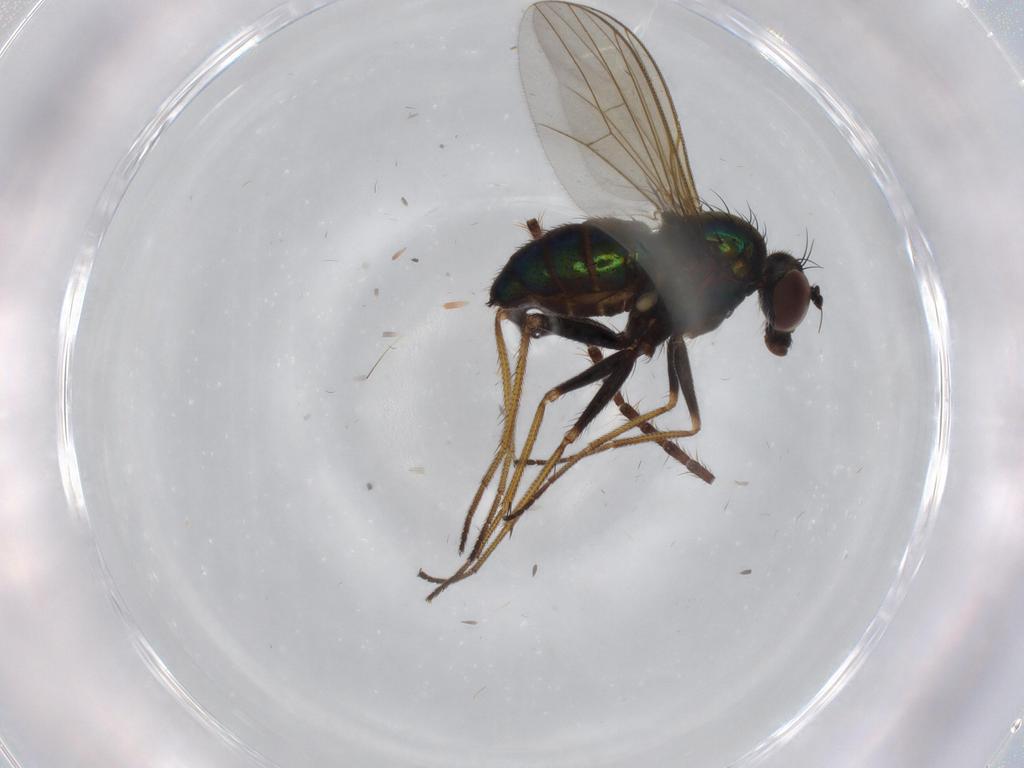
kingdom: Animalia
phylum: Arthropoda
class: Insecta
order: Diptera
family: Dolichopodidae
